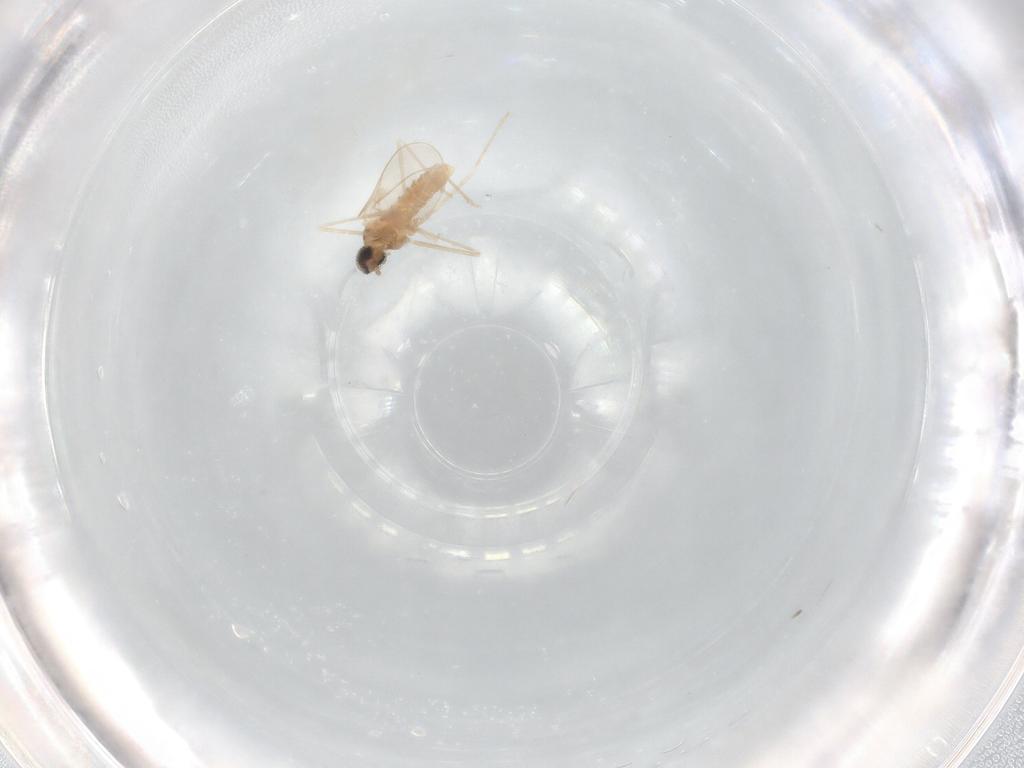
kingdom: Animalia
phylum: Arthropoda
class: Insecta
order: Diptera
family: Cecidomyiidae
